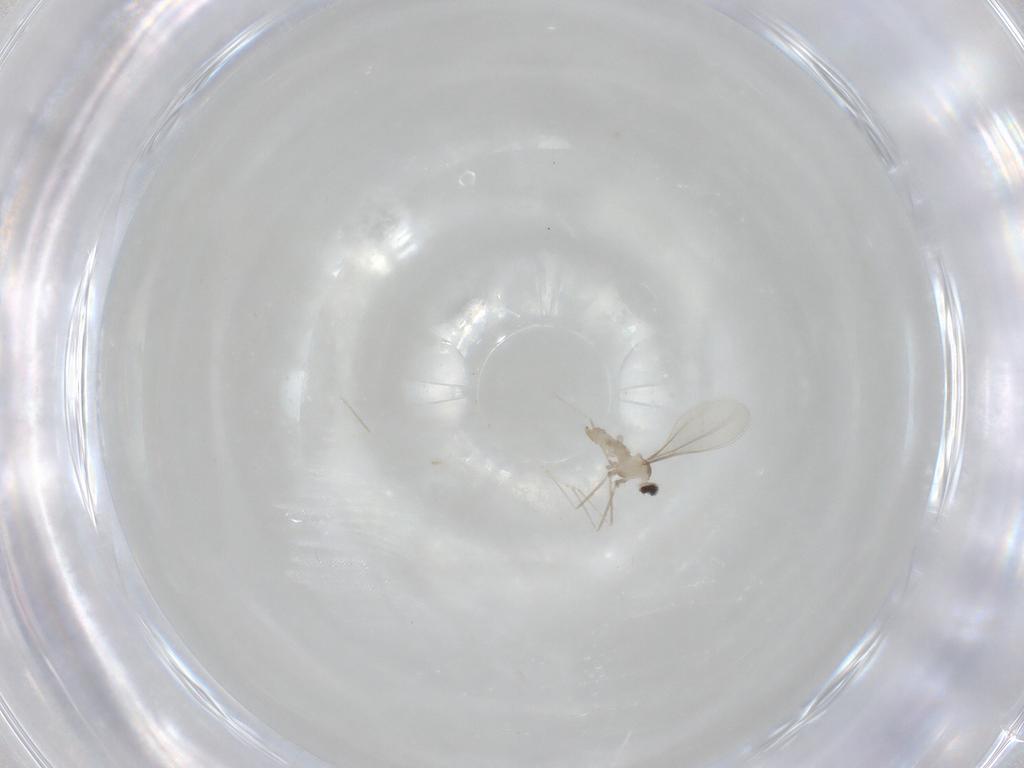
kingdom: Animalia
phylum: Arthropoda
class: Insecta
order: Diptera
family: Cecidomyiidae
